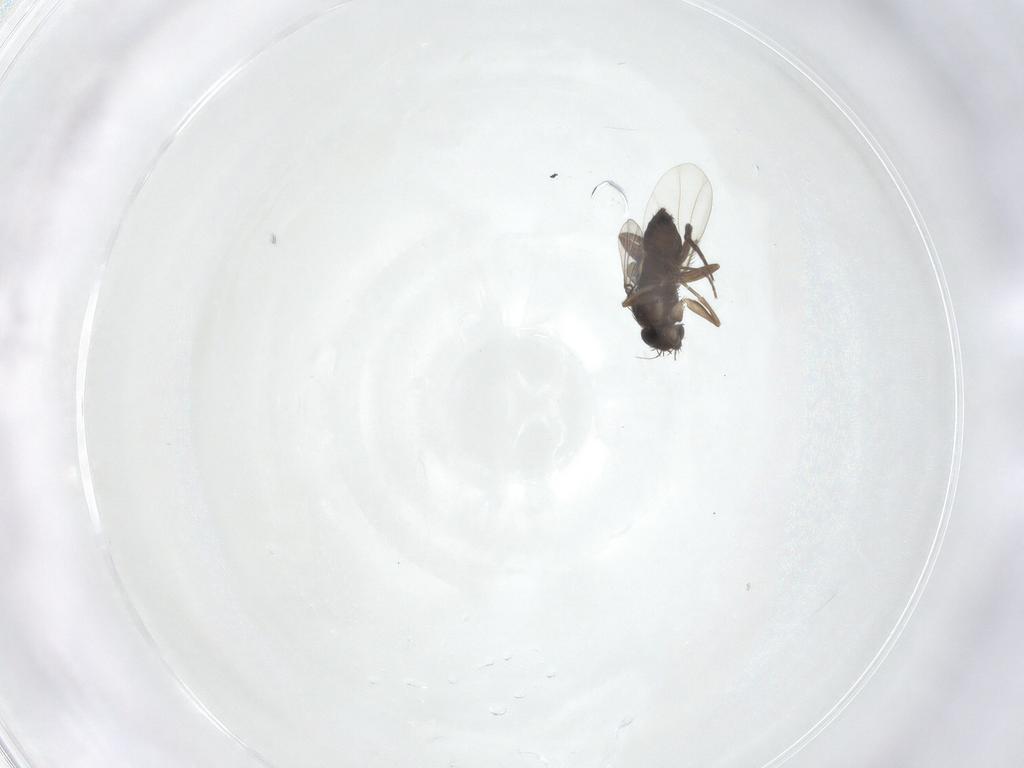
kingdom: Animalia
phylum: Arthropoda
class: Insecta
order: Diptera
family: Phoridae
